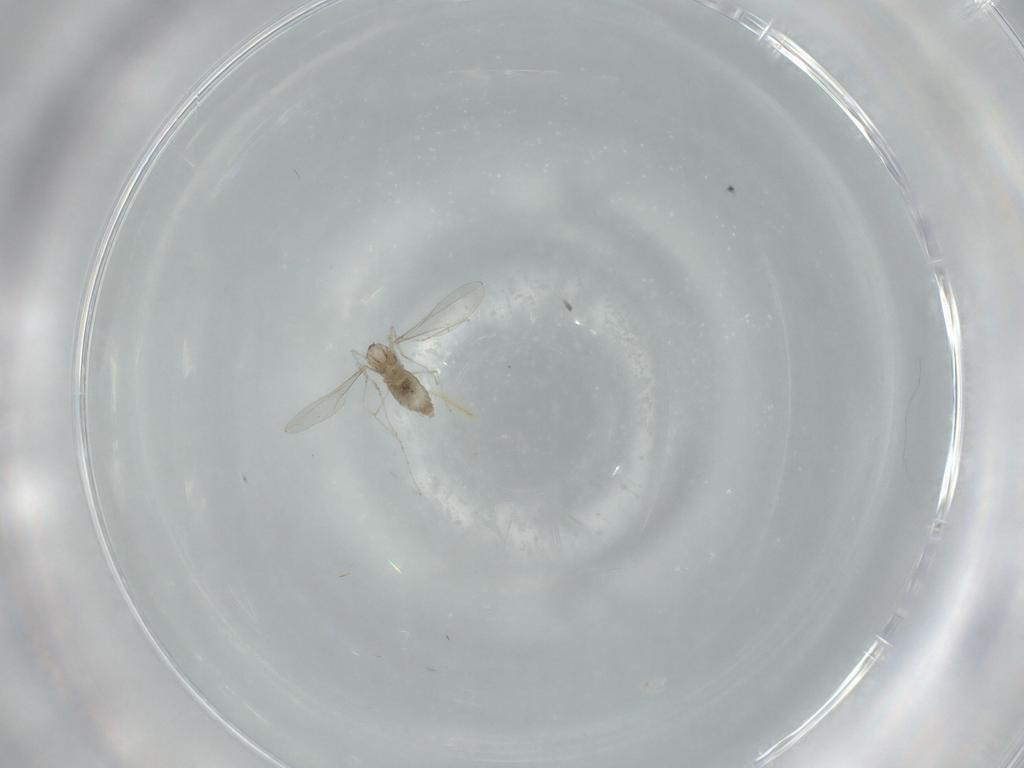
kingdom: Animalia
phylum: Arthropoda
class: Insecta
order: Diptera
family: Cecidomyiidae
